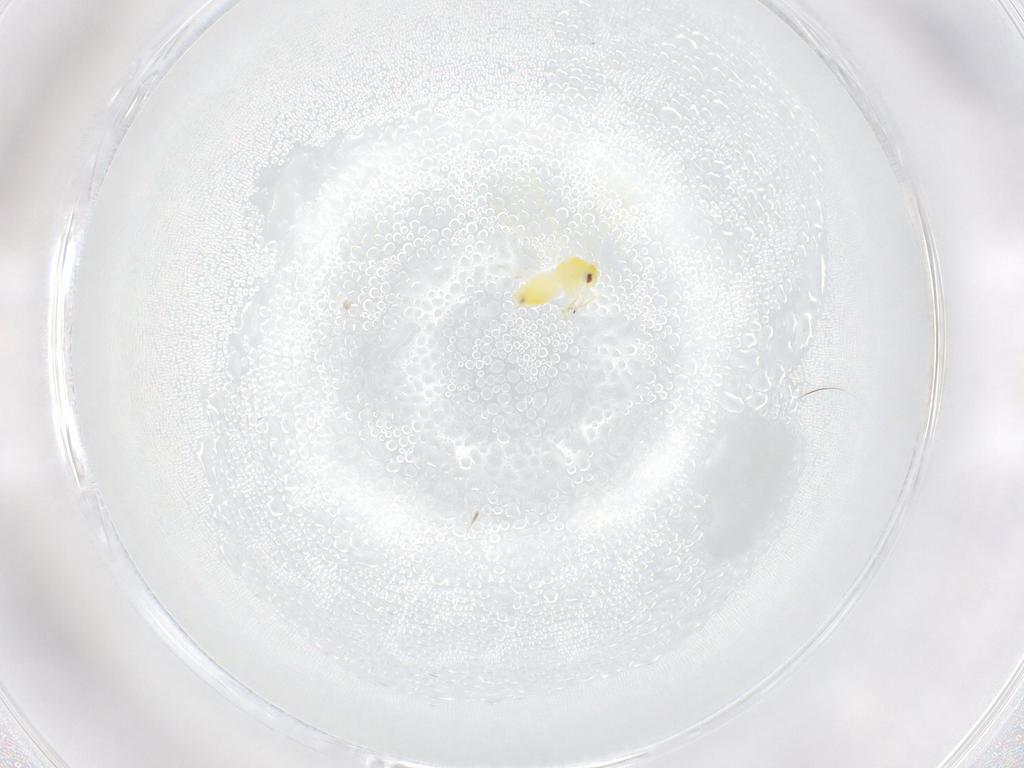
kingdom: Animalia
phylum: Arthropoda
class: Insecta
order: Hemiptera
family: Aleyrodidae
